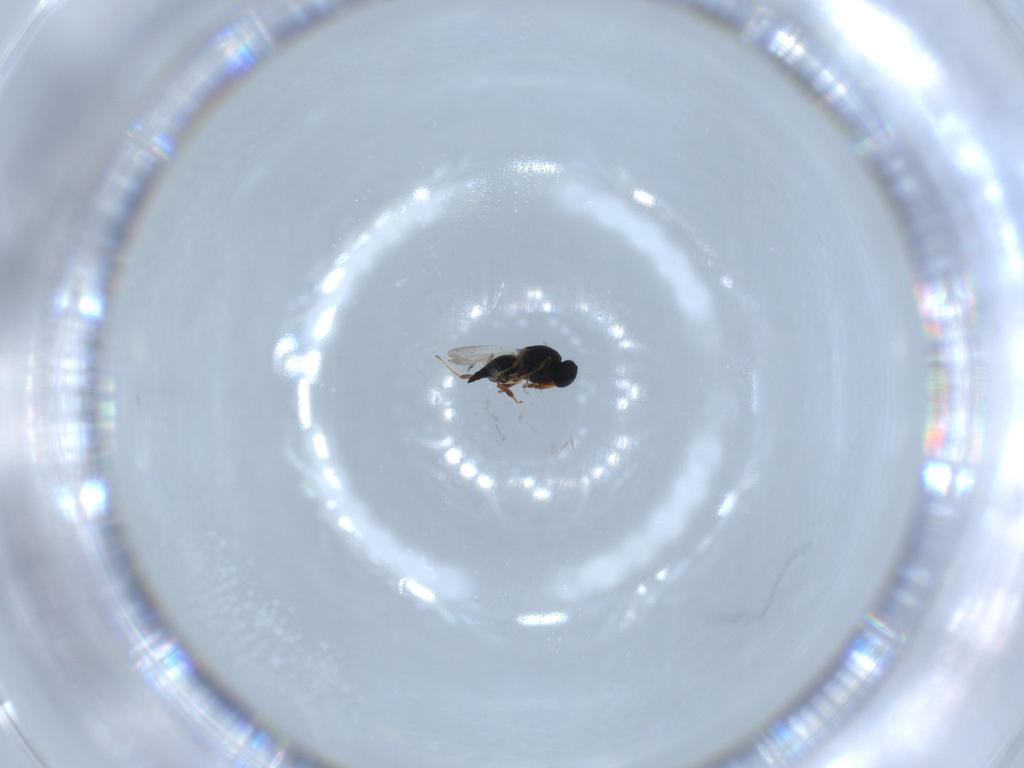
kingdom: Animalia
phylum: Arthropoda
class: Insecta
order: Hymenoptera
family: Platygastridae
